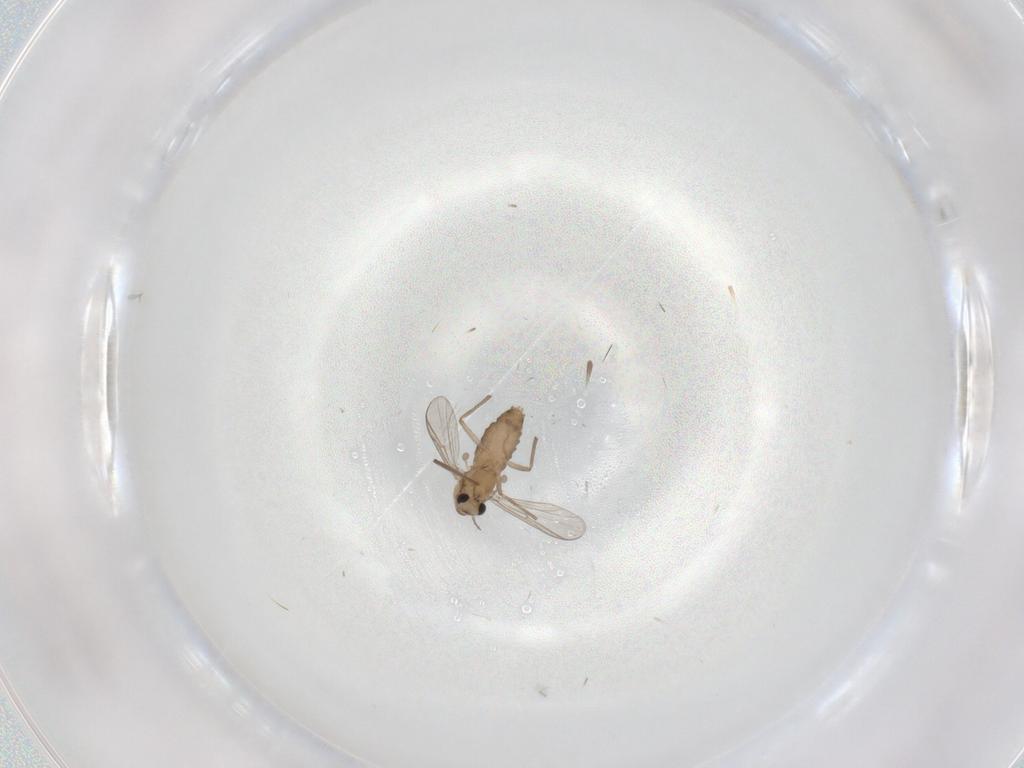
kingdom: Animalia
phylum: Arthropoda
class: Insecta
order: Diptera
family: Chironomidae
